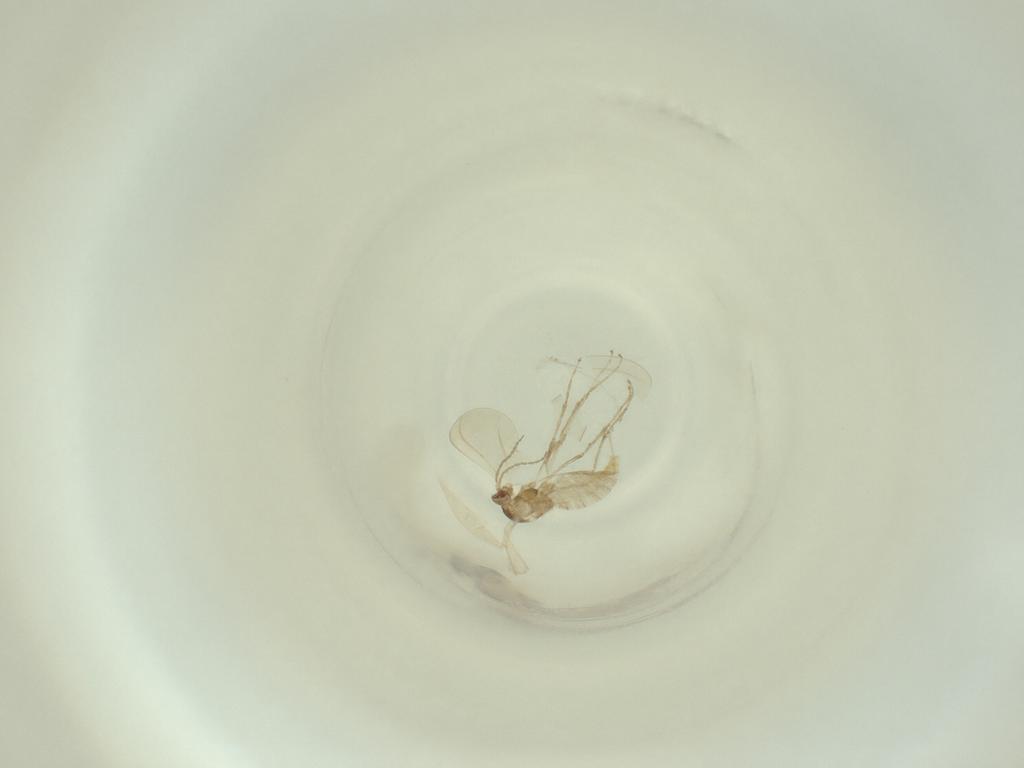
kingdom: Animalia
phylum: Arthropoda
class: Insecta
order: Diptera
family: Cecidomyiidae
